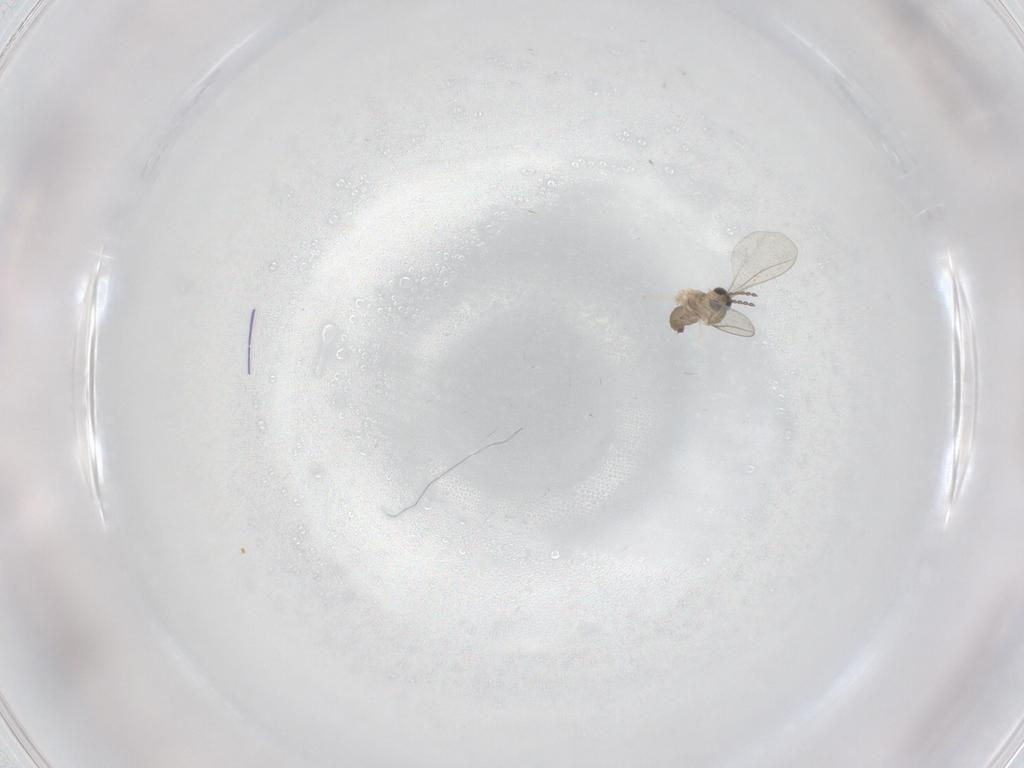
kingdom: Animalia
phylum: Arthropoda
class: Insecta
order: Diptera
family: Cecidomyiidae
